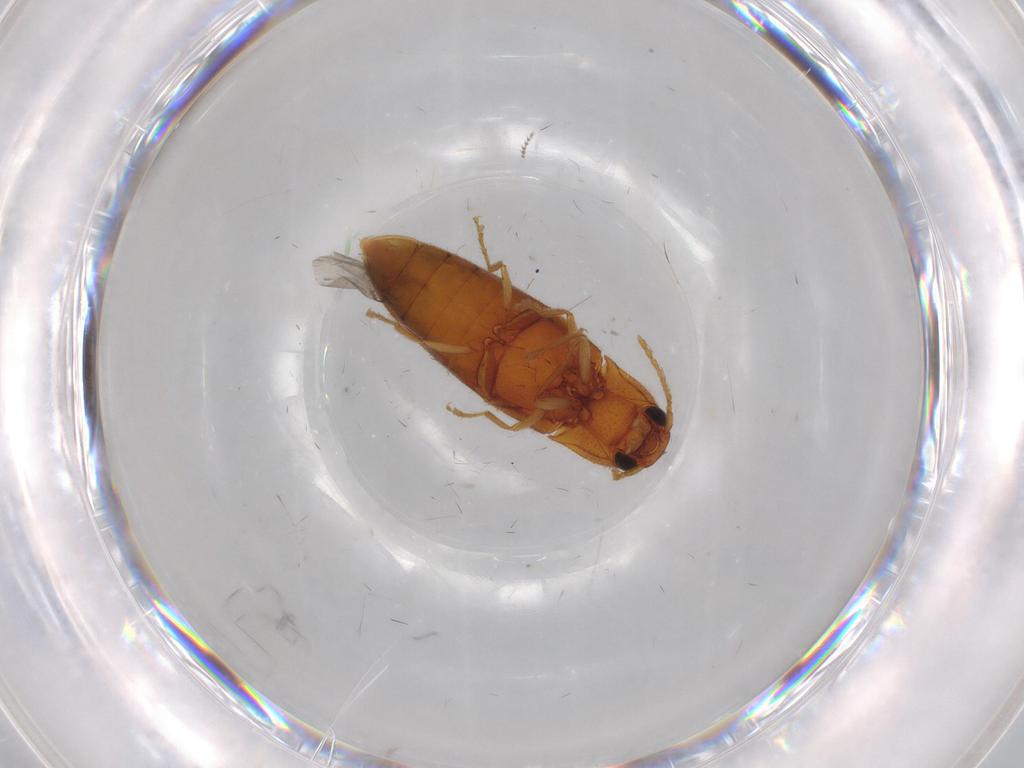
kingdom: Animalia
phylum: Arthropoda
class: Insecta
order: Coleoptera
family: Elateridae
